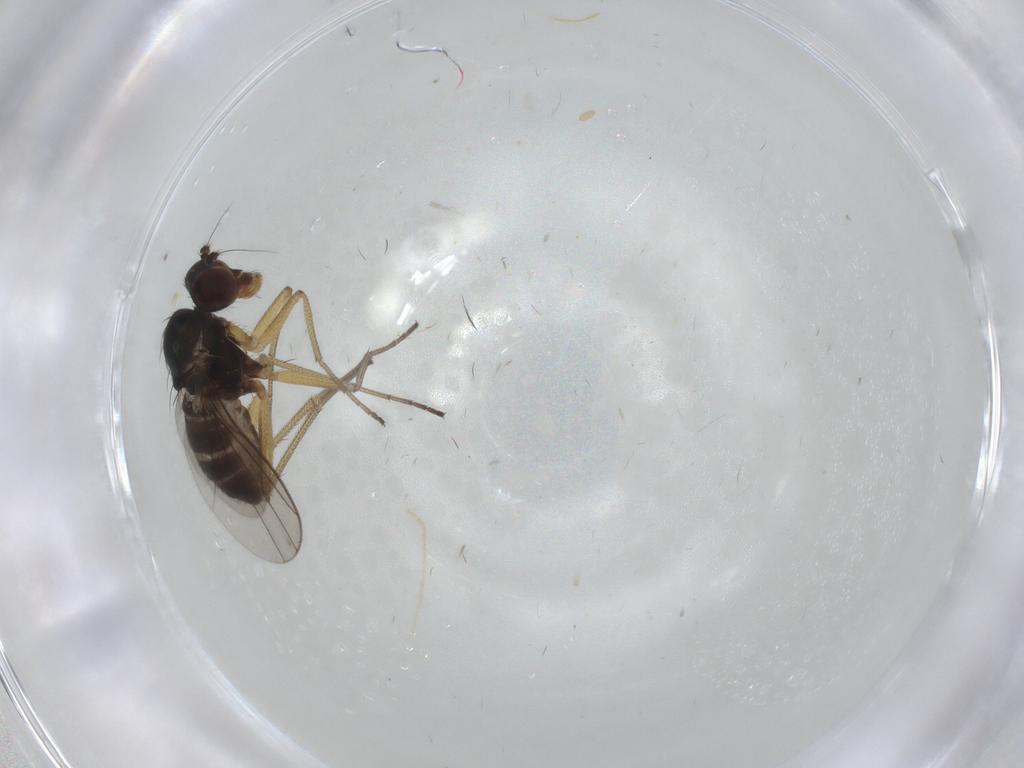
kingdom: Animalia
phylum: Arthropoda
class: Insecta
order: Diptera
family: Dolichopodidae
